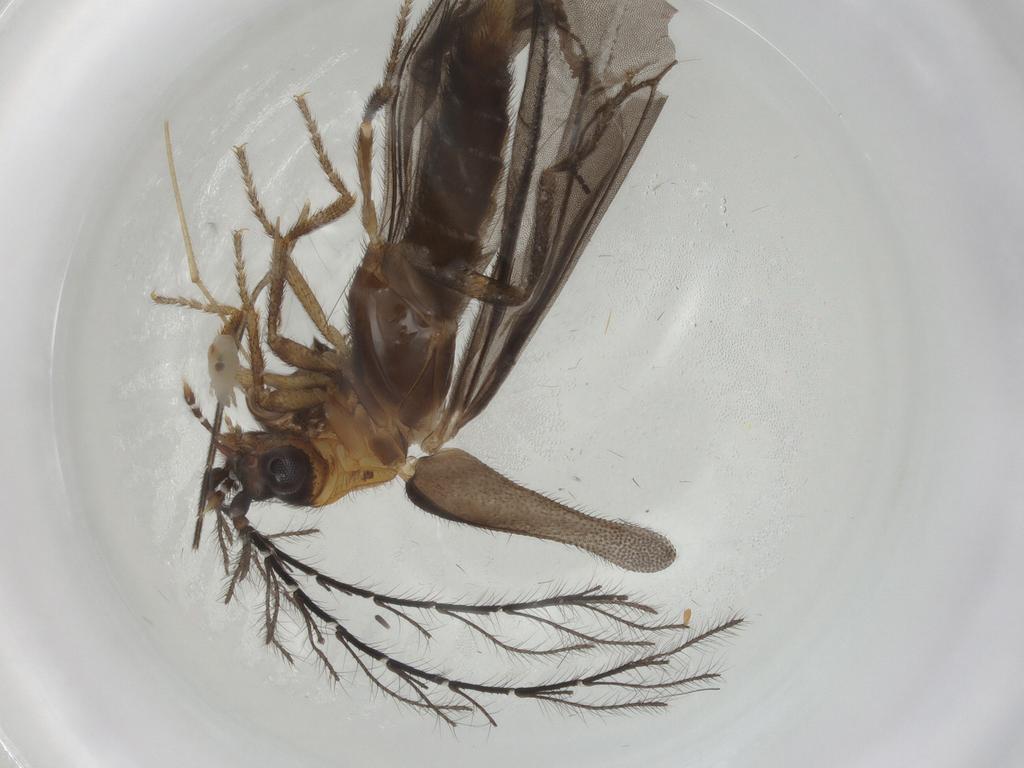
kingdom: Animalia
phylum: Arthropoda
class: Insecta
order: Coleoptera
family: Phengodidae
